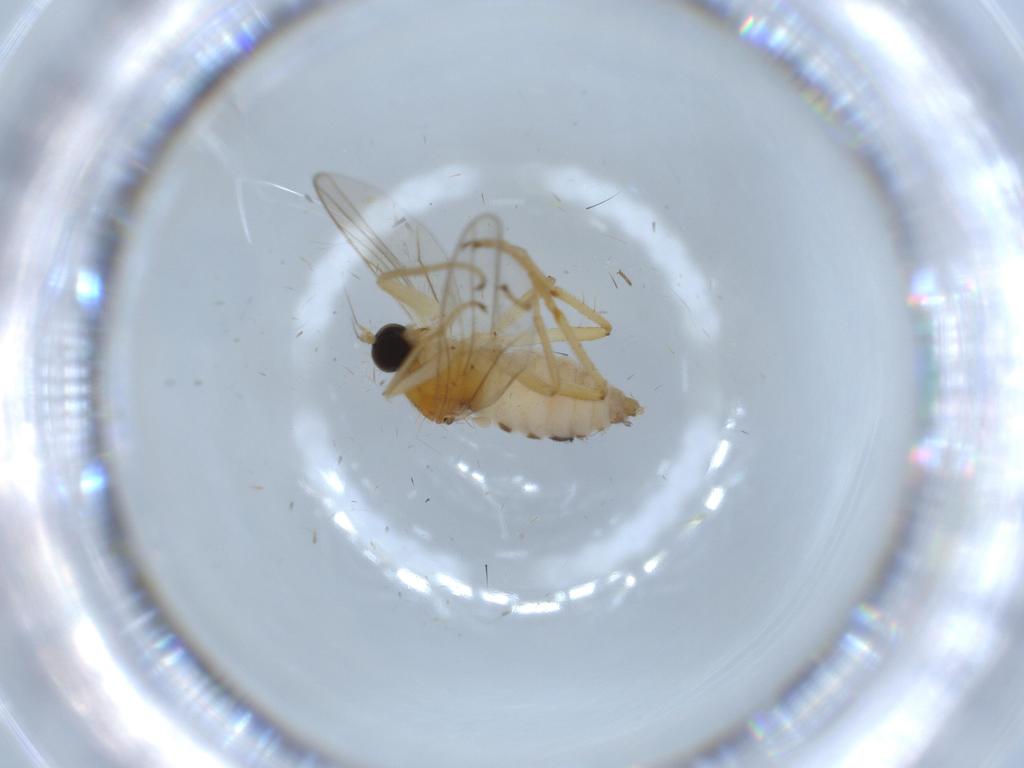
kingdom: Animalia
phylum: Arthropoda
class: Insecta
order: Diptera
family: Hybotidae
